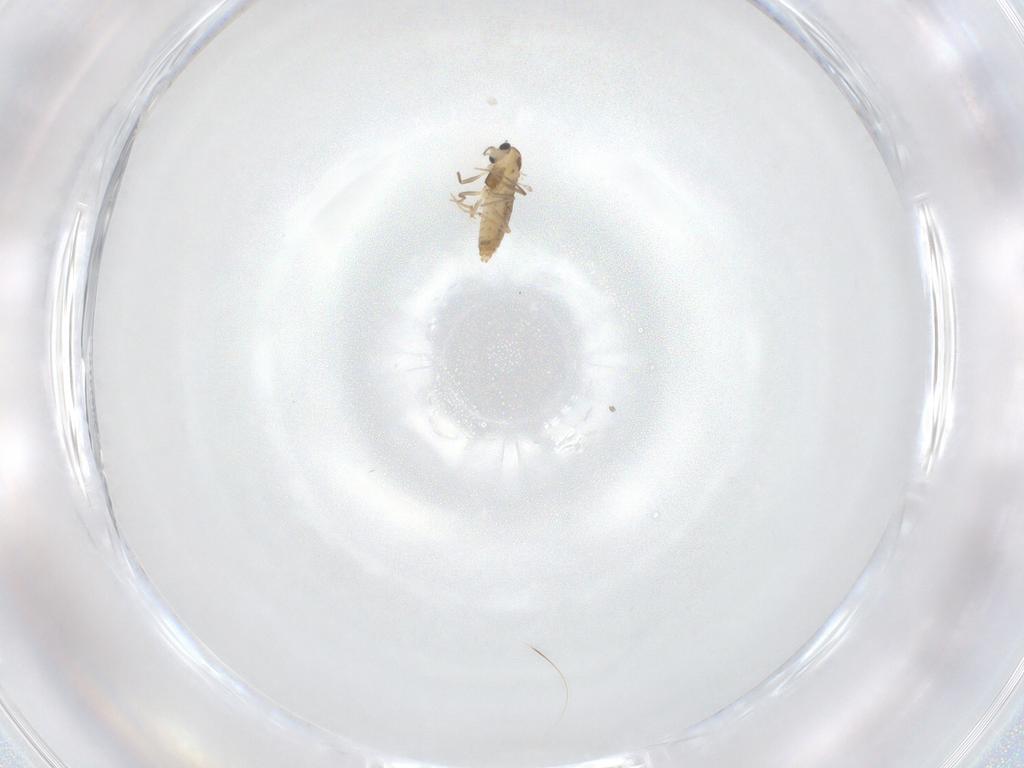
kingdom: Animalia
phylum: Arthropoda
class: Insecta
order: Diptera
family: Chironomidae
